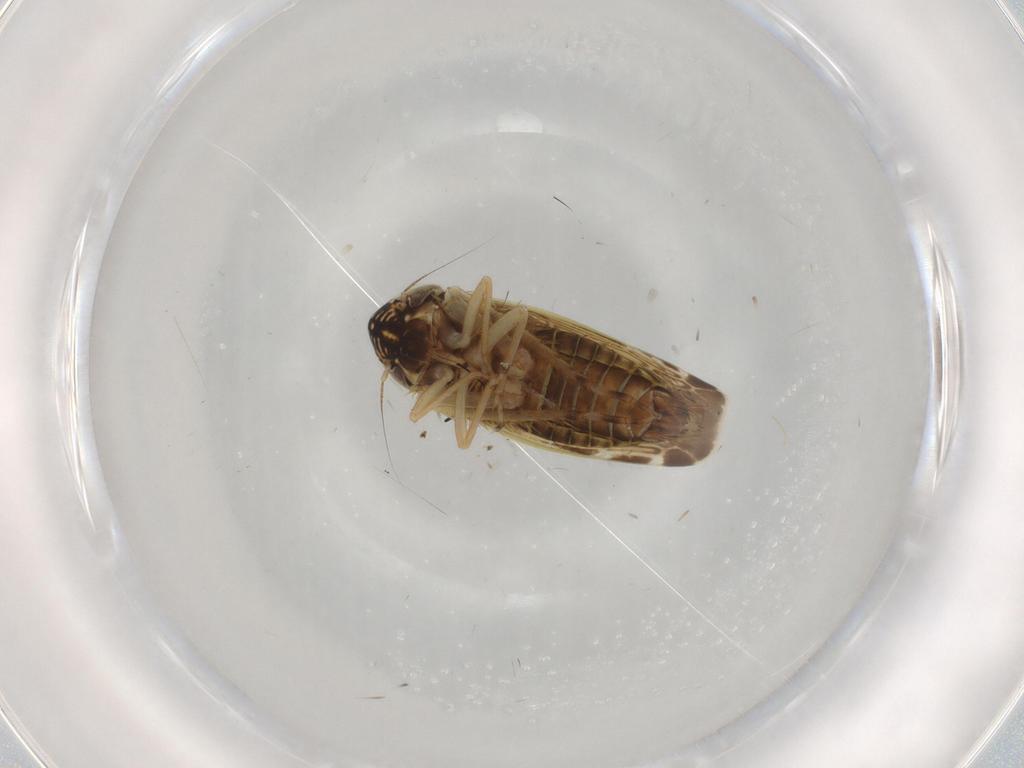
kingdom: Animalia
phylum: Arthropoda
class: Insecta
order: Hemiptera
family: Cicadellidae
